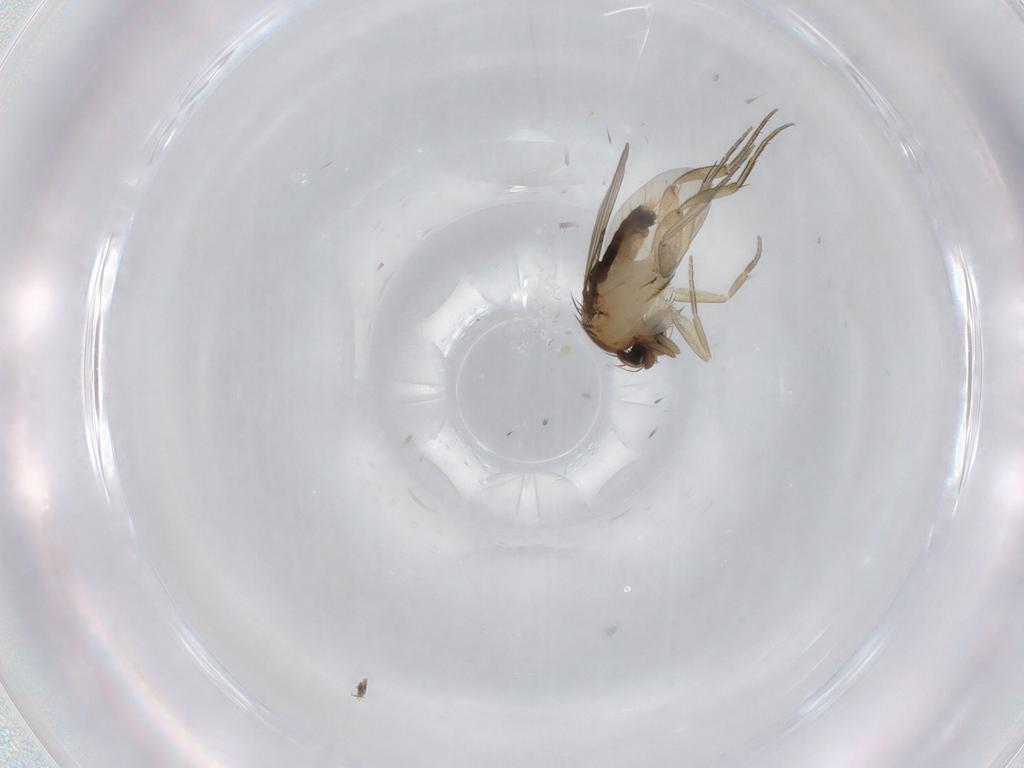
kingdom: Animalia
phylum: Arthropoda
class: Insecta
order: Diptera
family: Phoridae
